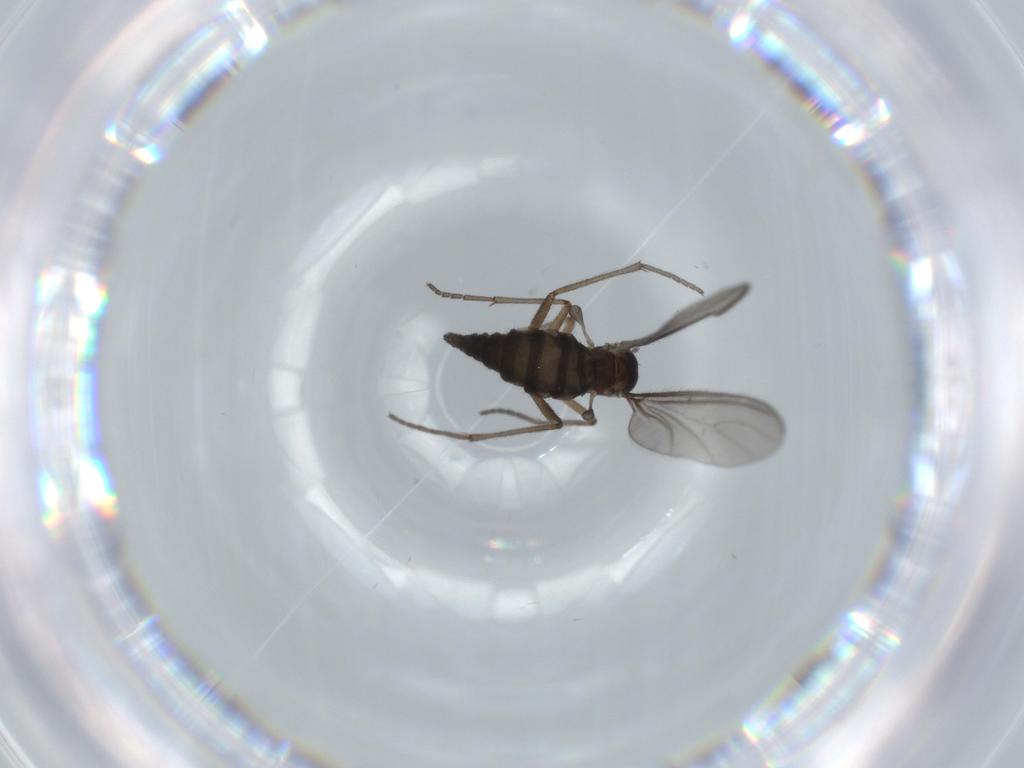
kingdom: Animalia
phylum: Arthropoda
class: Insecta
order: Diptera
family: Sciaridae
